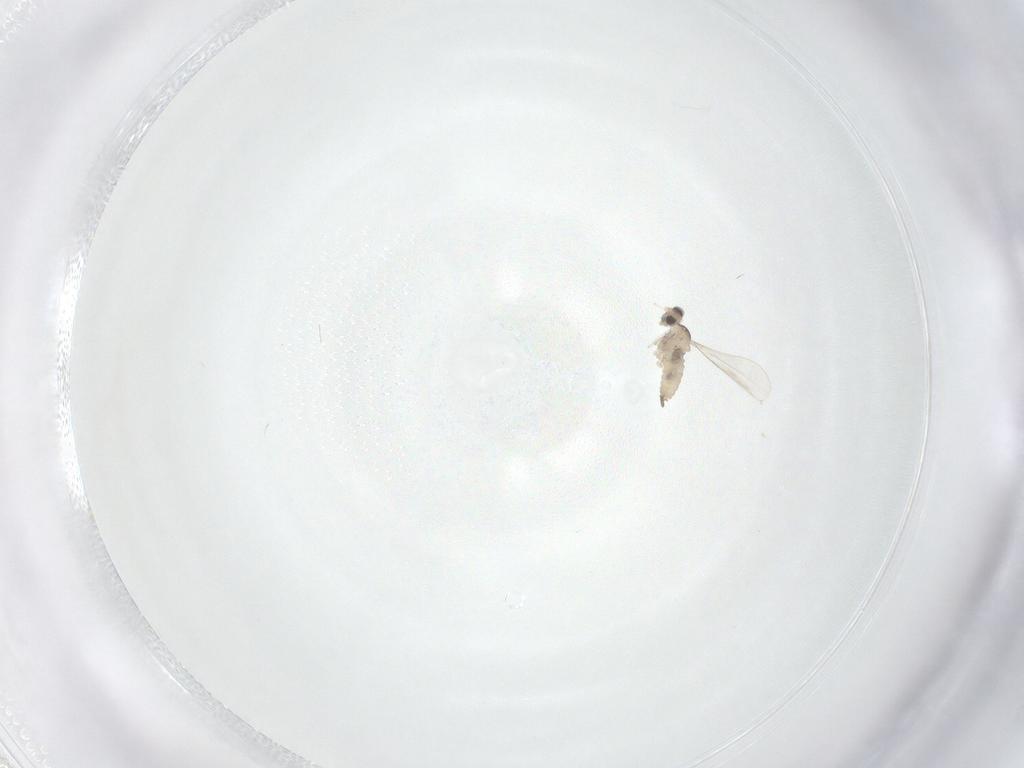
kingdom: Animalia
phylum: Arthropoda
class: Insecta
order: Diptera
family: Cecidomyiidae
